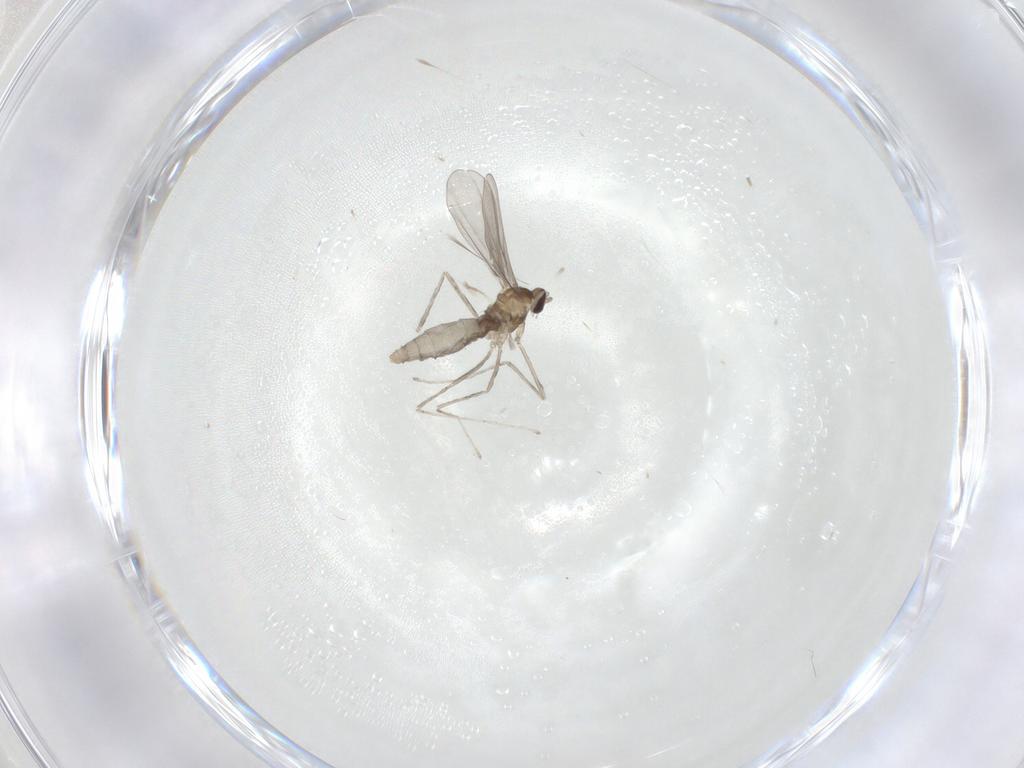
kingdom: Animalia
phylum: Arthropoda
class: Insecta
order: Diptera
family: Cecidomyiidae
